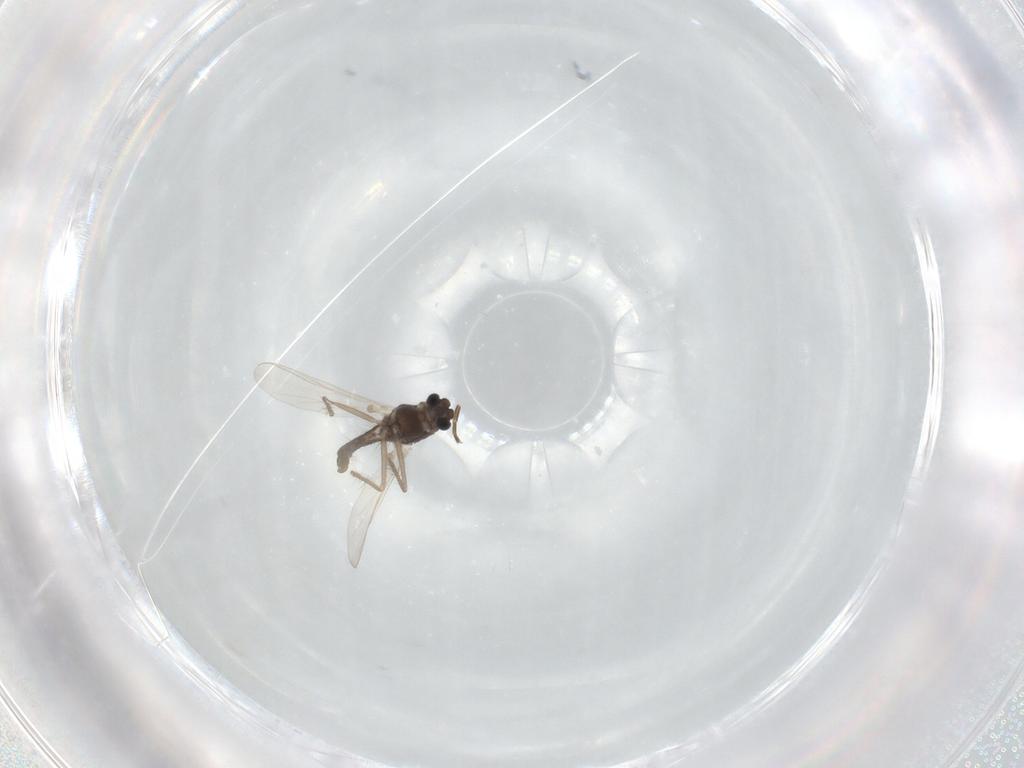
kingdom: Animalia
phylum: Arthropoda
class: Insecta
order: Diptera
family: Chironomidae
